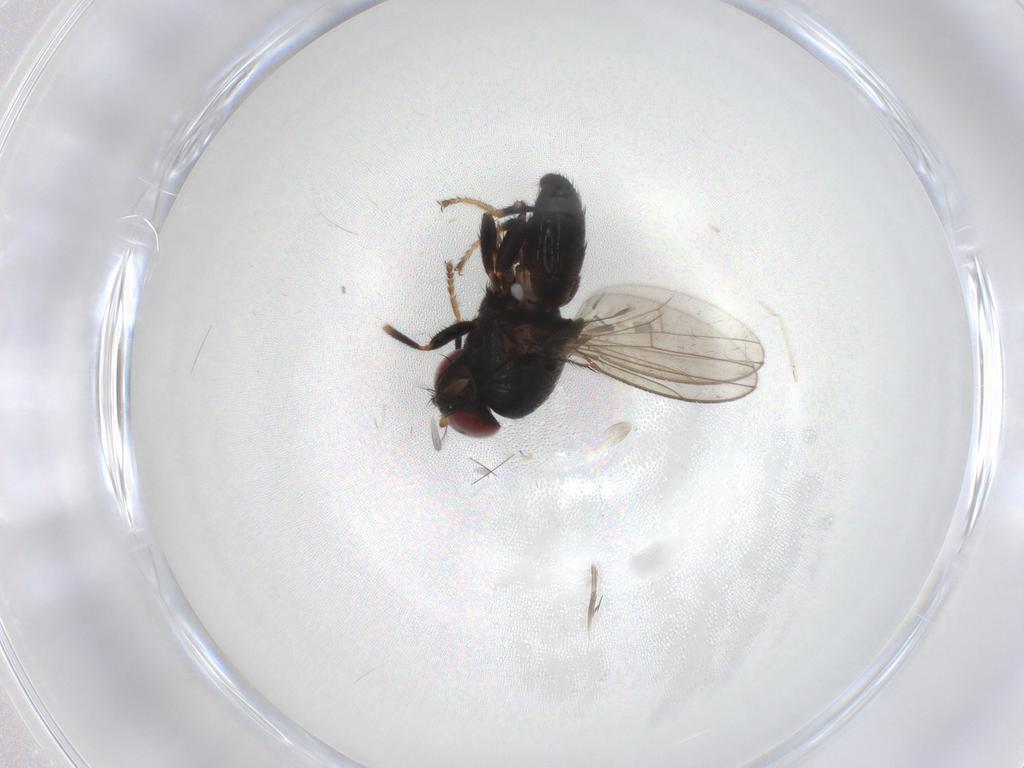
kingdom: Animalia
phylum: Arthropoda
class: Insecta
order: Diptera
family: Ephydridae
